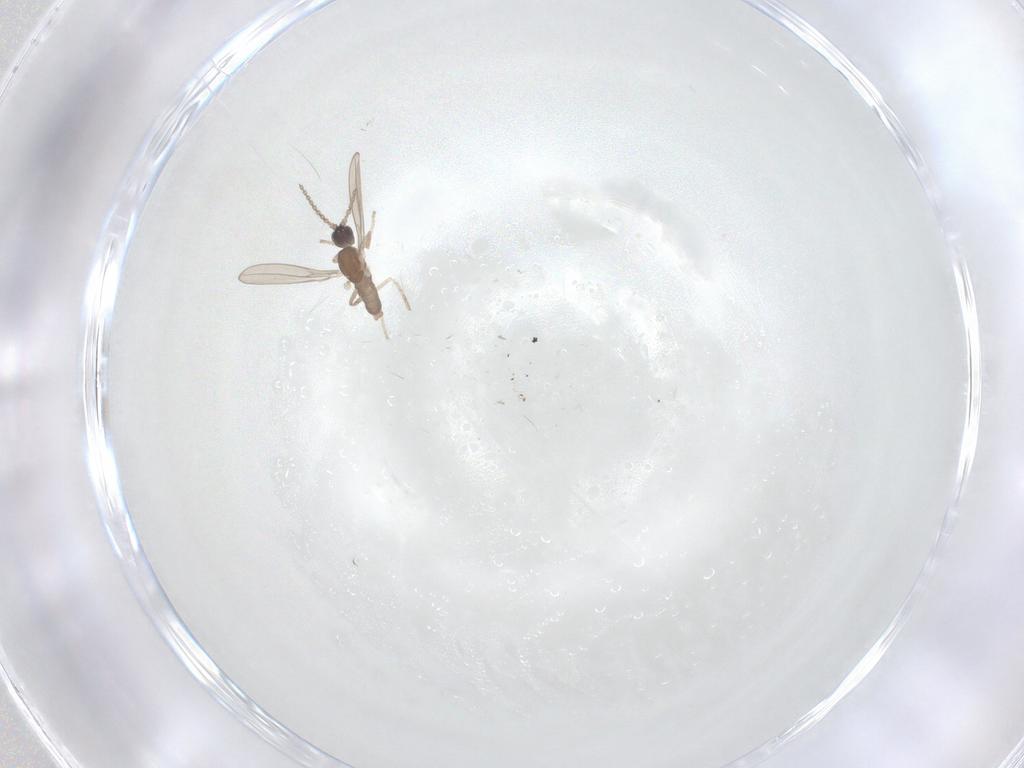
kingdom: Animalia
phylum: Arthropoda
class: Insecta
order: Diptera
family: Cecidomyiidae
